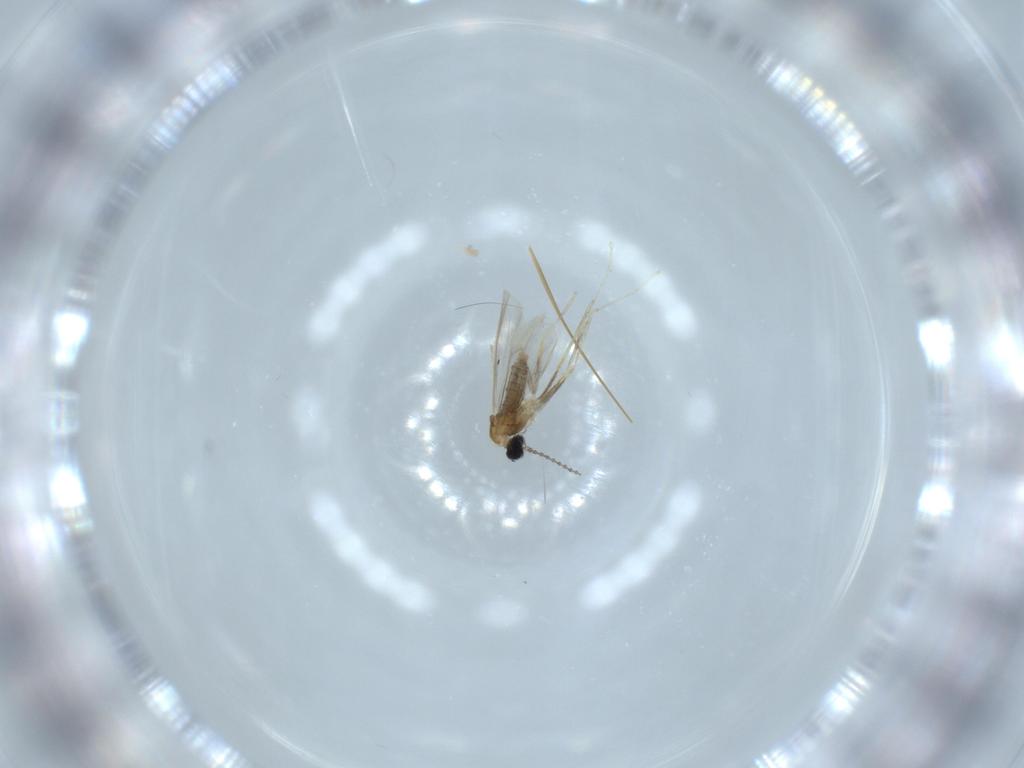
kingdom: Animalia
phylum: Arthropoda
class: Insecta
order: Diptera
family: Cecidomyiidae
